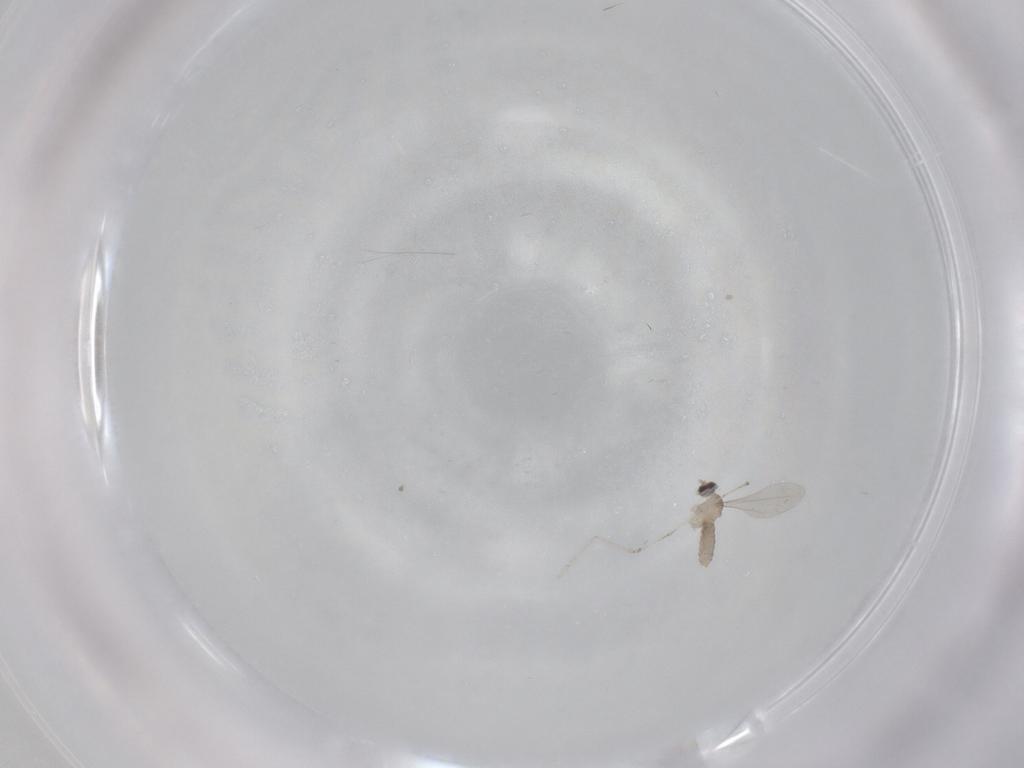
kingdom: Animalia
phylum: Arthropoda
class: Insecta
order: Diptera
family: Cecidomyiidae
